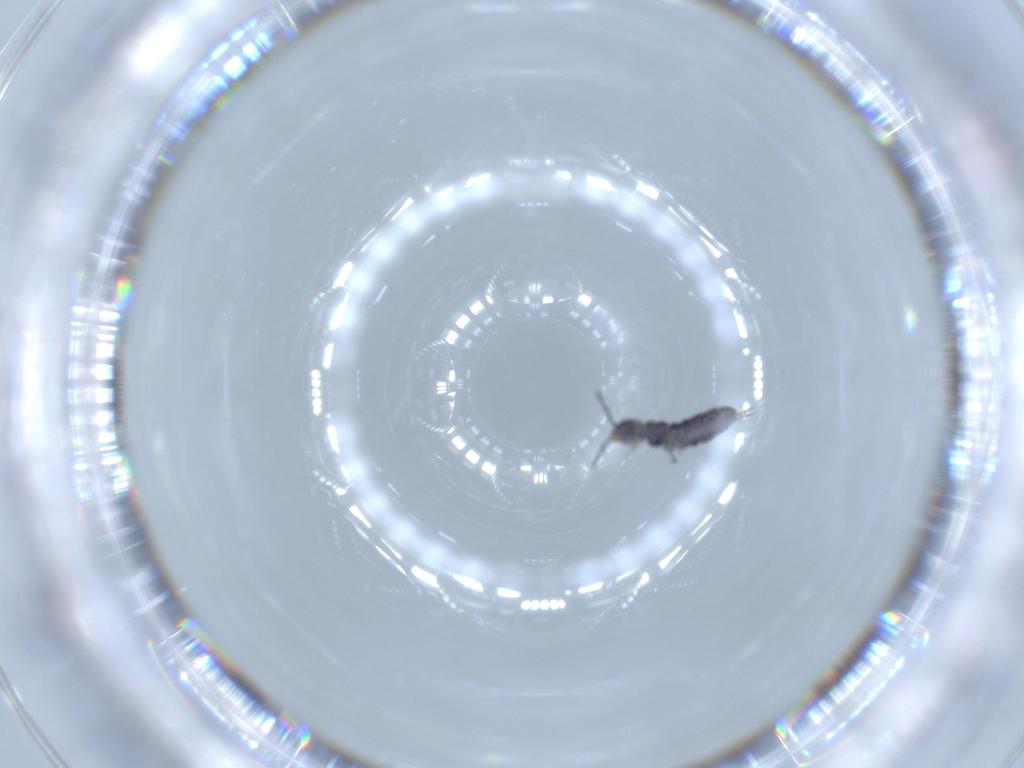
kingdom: Animalia
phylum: Arthropoda
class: Collembola
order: Entomobryomorpha
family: Isotomidae
